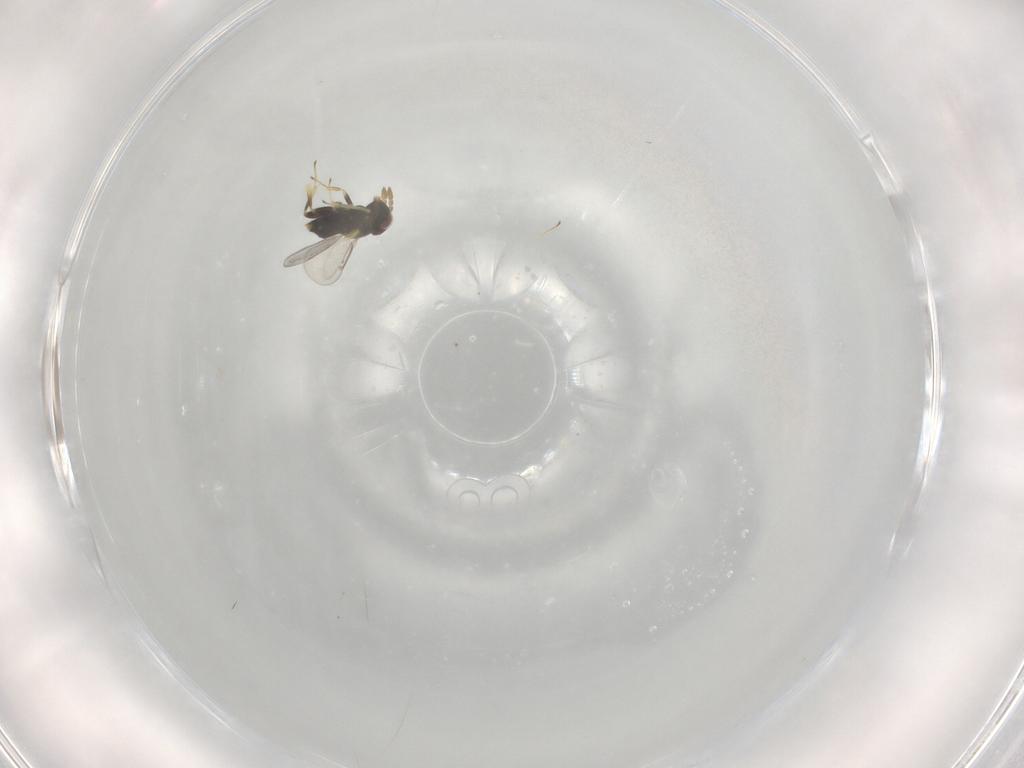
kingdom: Animalia
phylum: Arthropoda
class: Insecta
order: Hymenoptera
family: Aphelinidae
